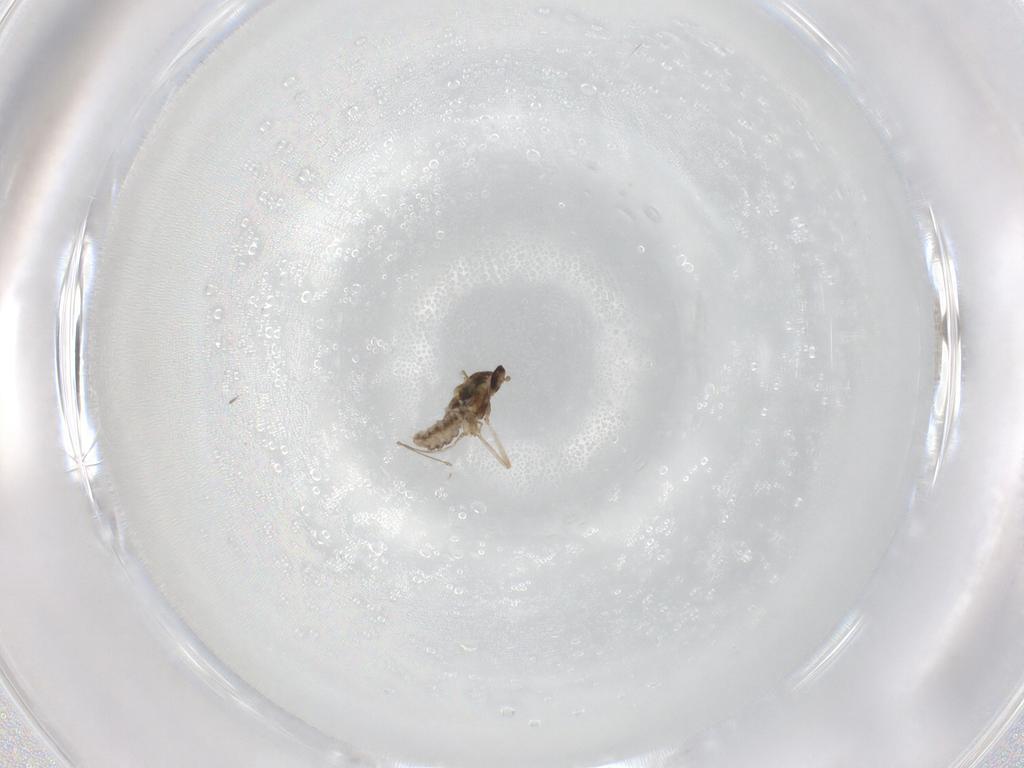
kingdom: Animalia
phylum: Arthropoda
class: Insecta
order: Diptera
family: Cecidomyiidae
